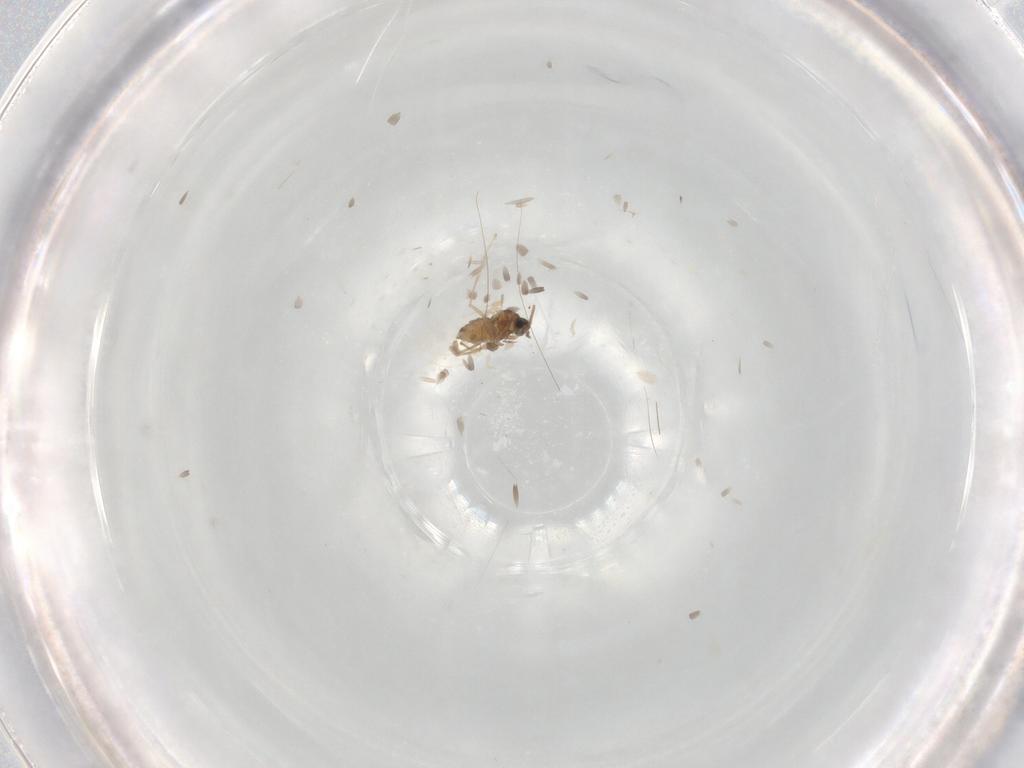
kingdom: Animalia
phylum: Arthropoda
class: Insecta
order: Diptera
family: Cecidomyiidae
